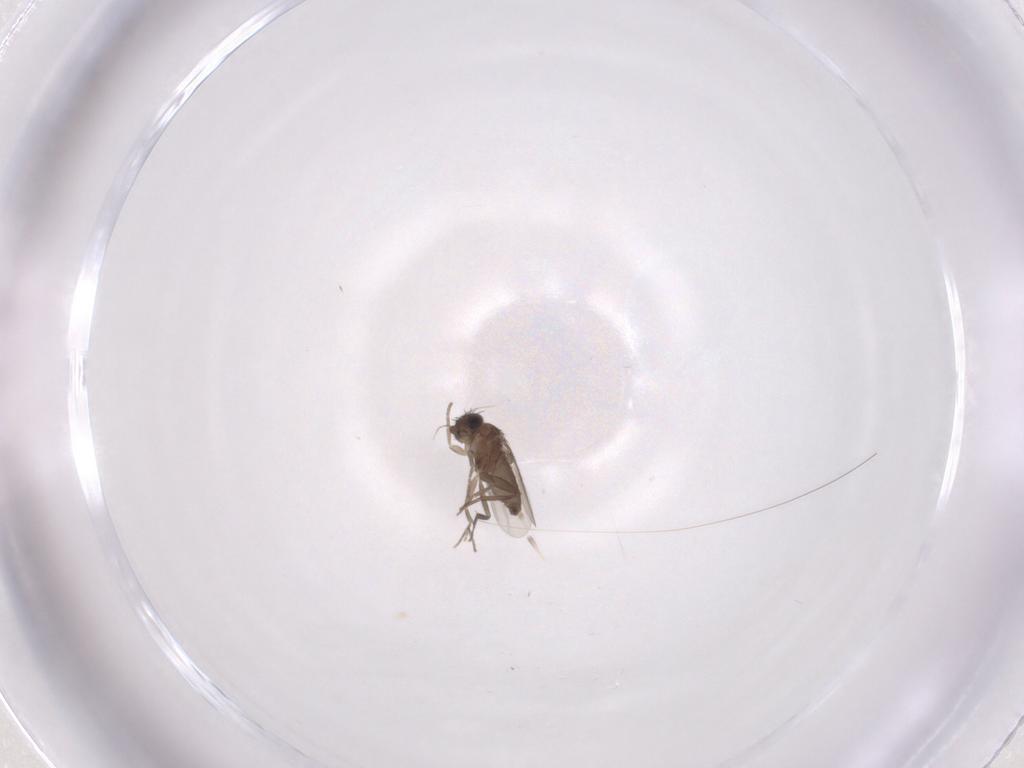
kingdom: Animalia
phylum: Arthropoda
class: Insecta
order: Diptera
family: Phoridae
